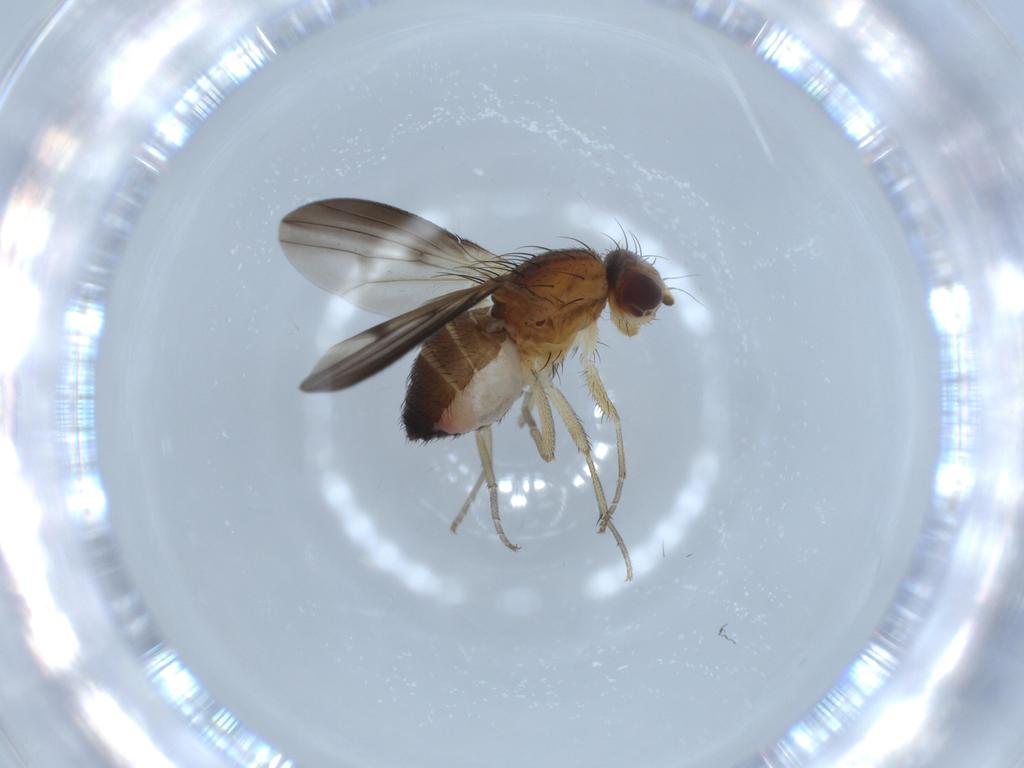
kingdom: Animalia
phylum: Arthropoda
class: Insecta
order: Diptera
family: Heleomyzidae
